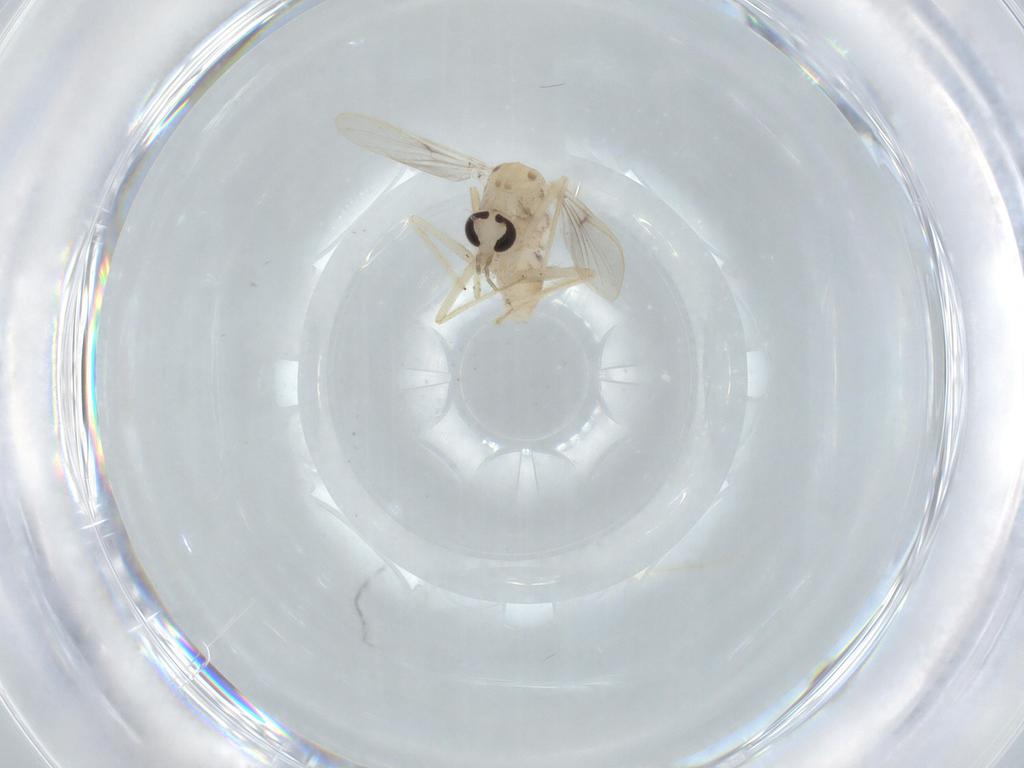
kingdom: Animalia
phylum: Arthropoda
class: Insecta
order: Diptera
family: Chironomidae
